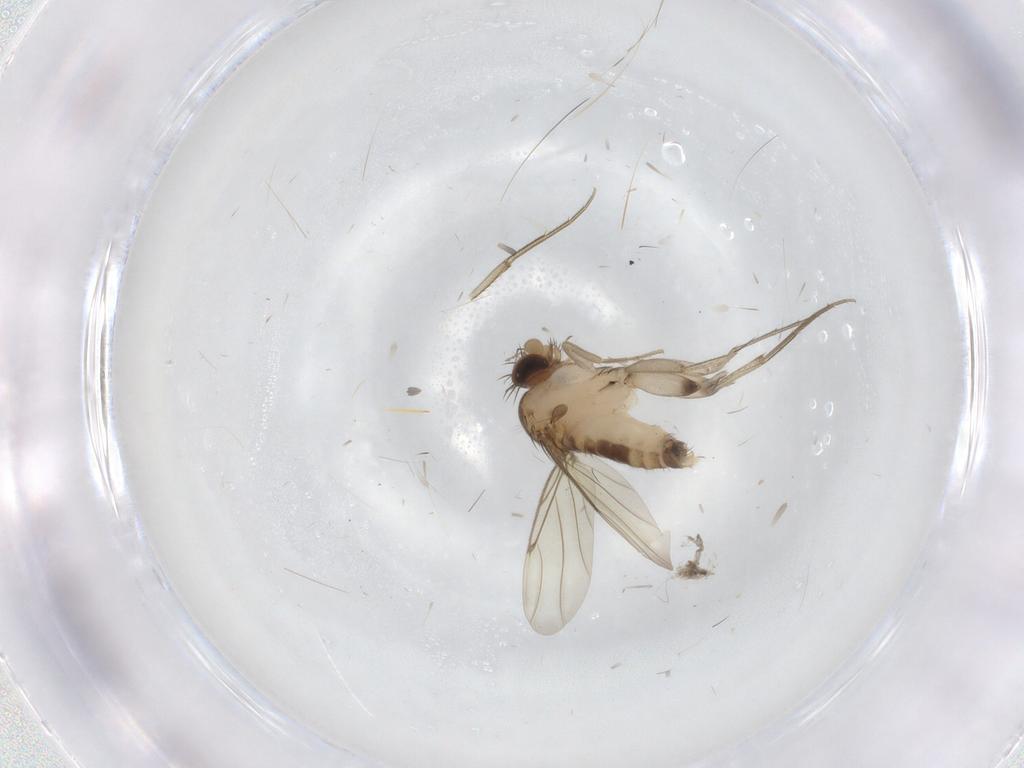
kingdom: Animalia
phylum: Arthropoda
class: Insecta
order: Diptera
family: Phoridae
